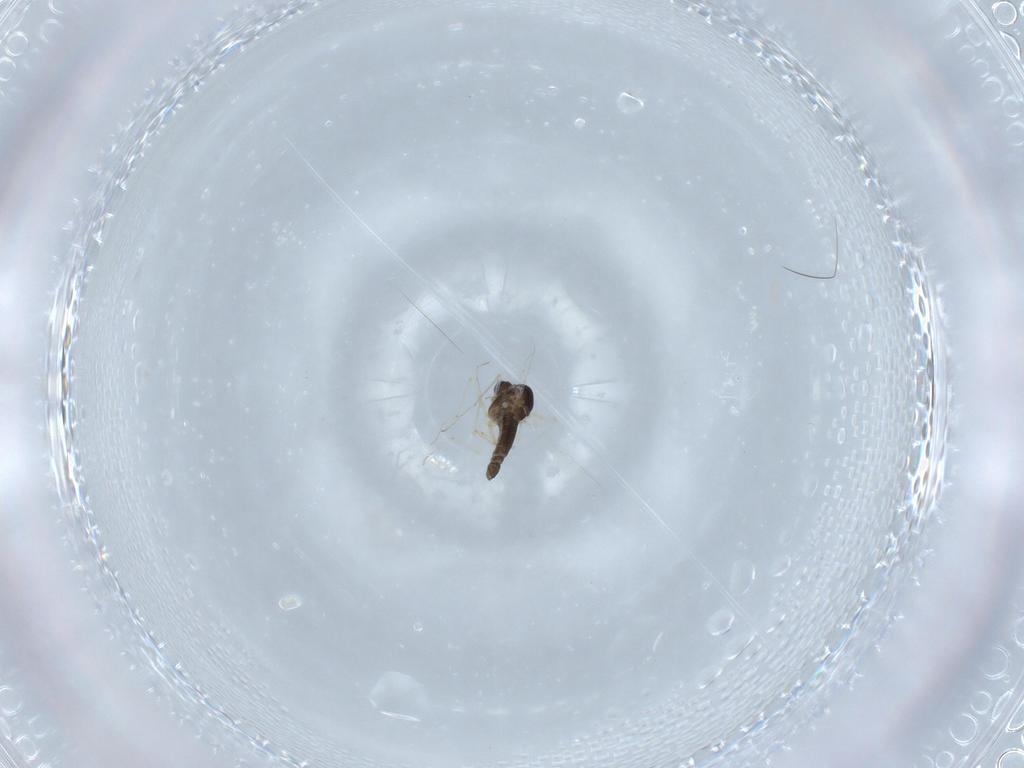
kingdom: Animalia
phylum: Arthropoda
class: Insecta
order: Diptera
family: Chironomidae
